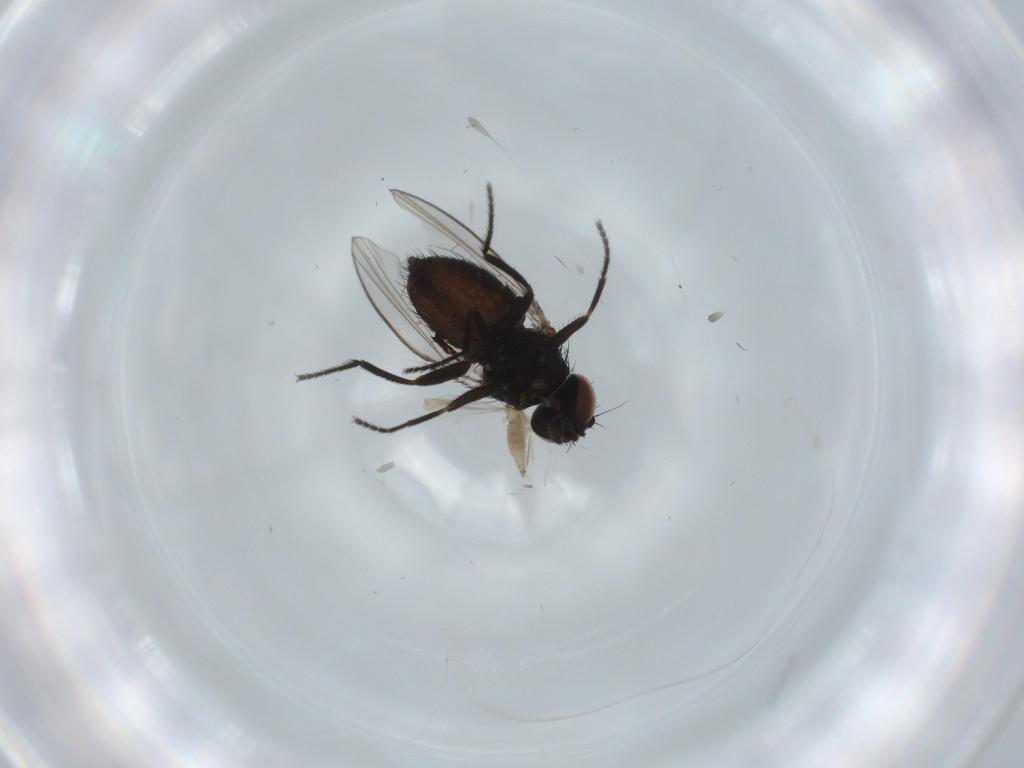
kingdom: Animalia
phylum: Arthropoda
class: Insecta
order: Diptera
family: Milichiidae
